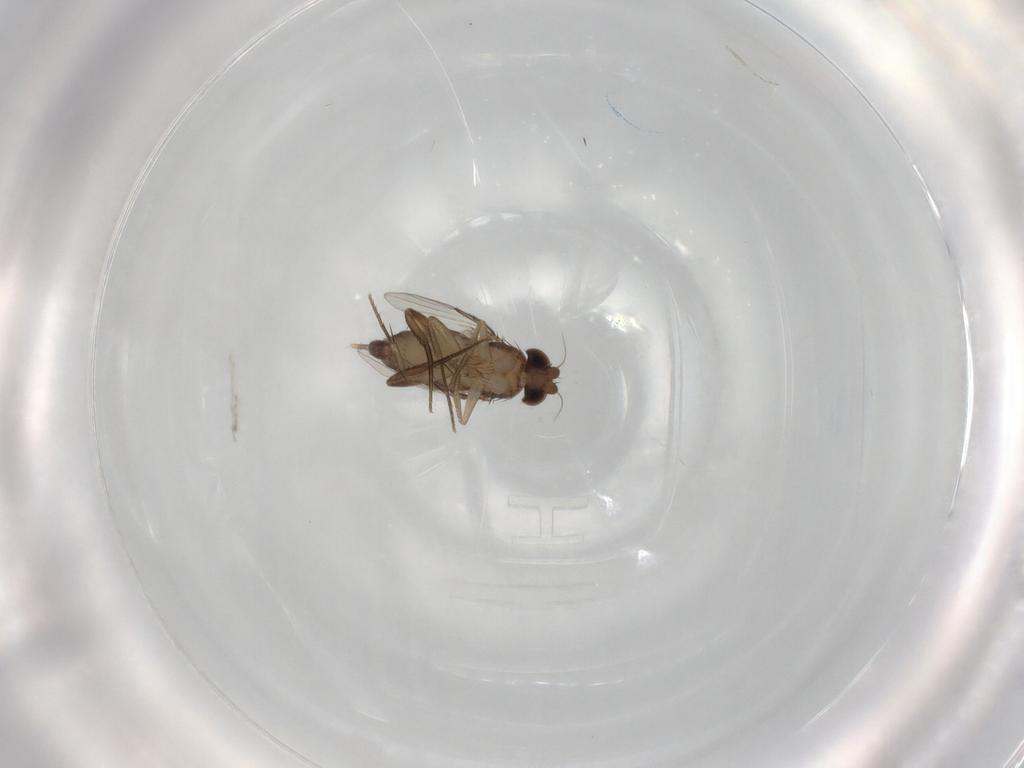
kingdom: Animalia
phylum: Arthropoda
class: Insecta
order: Diptera
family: Phoridae
